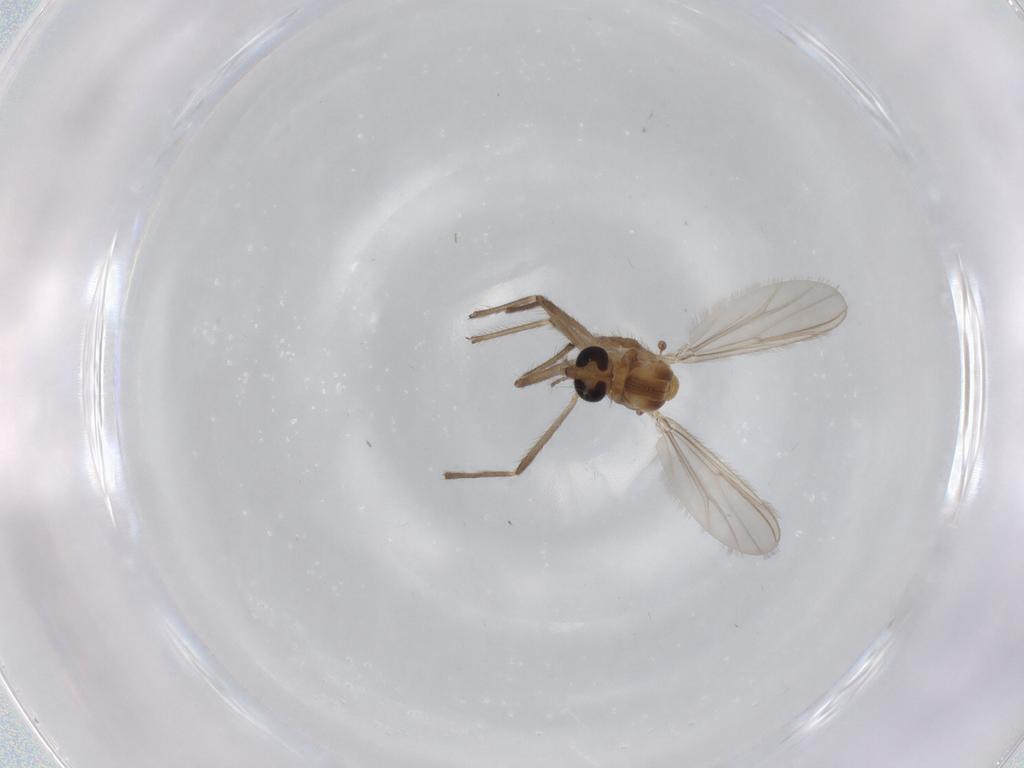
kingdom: Animalia
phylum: Arthropoda
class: Insecta
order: Diptera
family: Chironomidae
